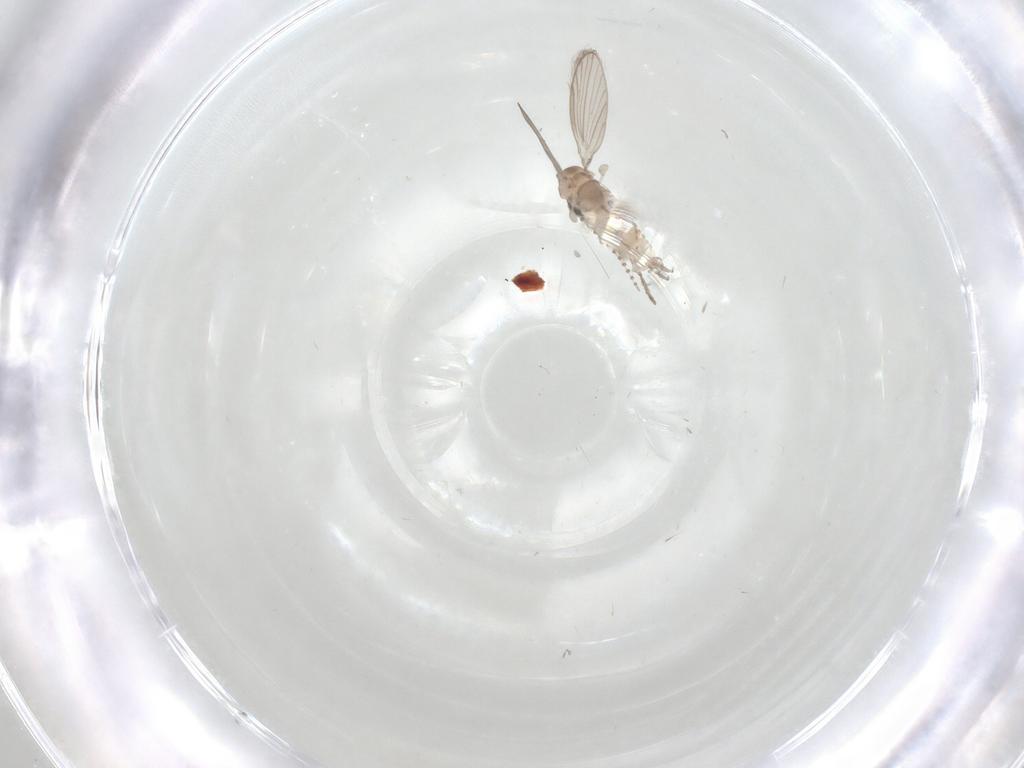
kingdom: Animalia
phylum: Arthropoda
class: Insecta
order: Diptera
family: Psychodidae
